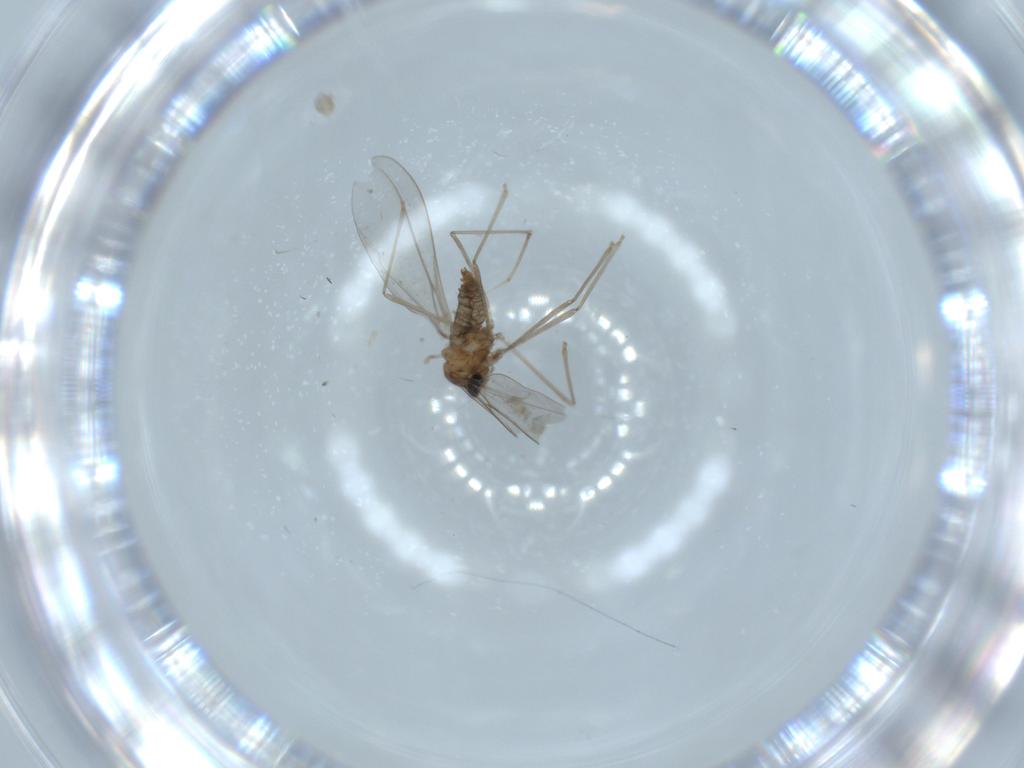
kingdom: Animalia
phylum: Arthropoda
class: Insecta
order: Diptera
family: Cecidomyiidae
